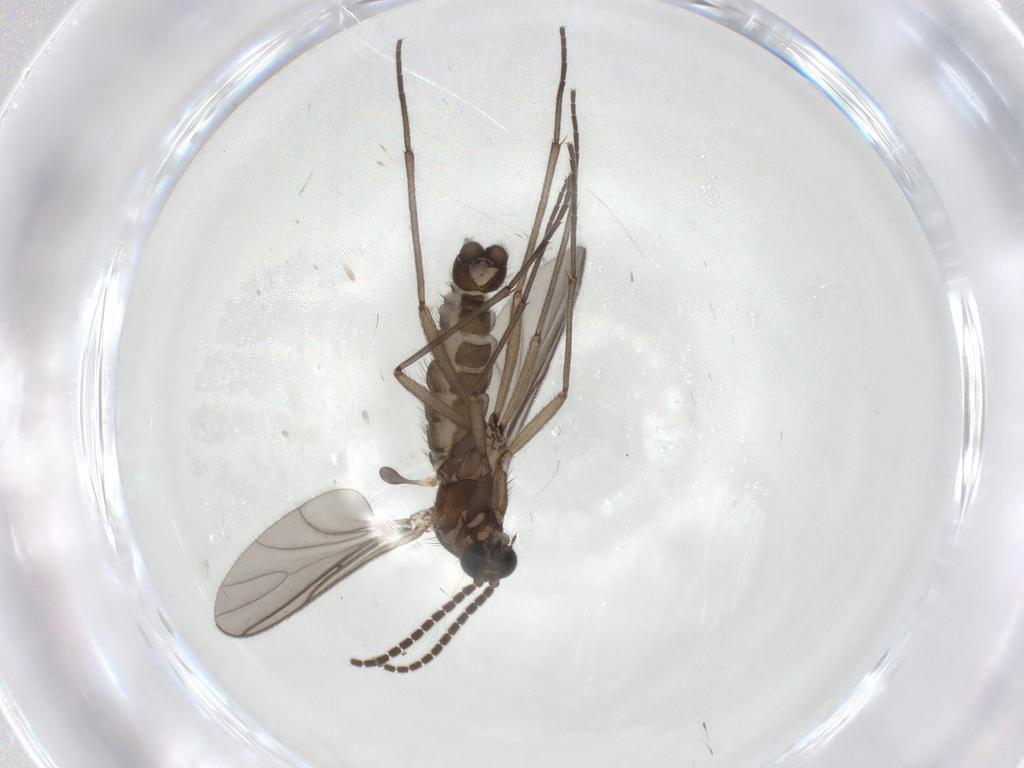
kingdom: Animalia
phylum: Arthropoda
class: Insecta
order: Diptera
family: Sciaridae
